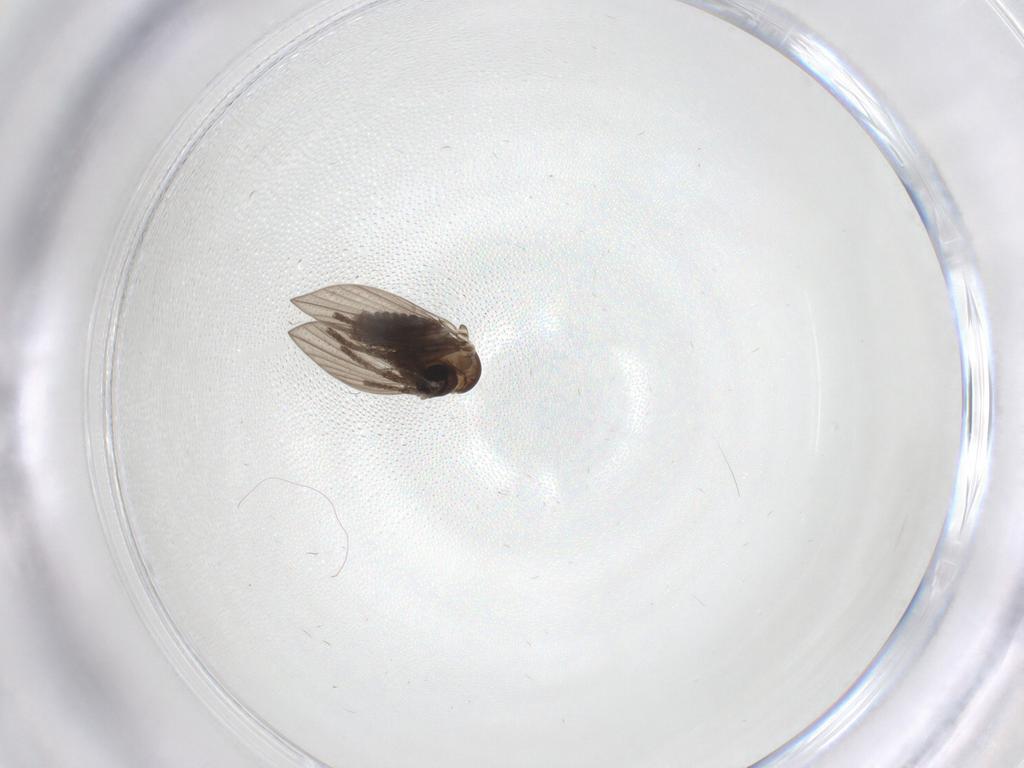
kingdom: Animalia
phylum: Arthropoda
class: Insecta
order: Diptera
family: Psychodidae
